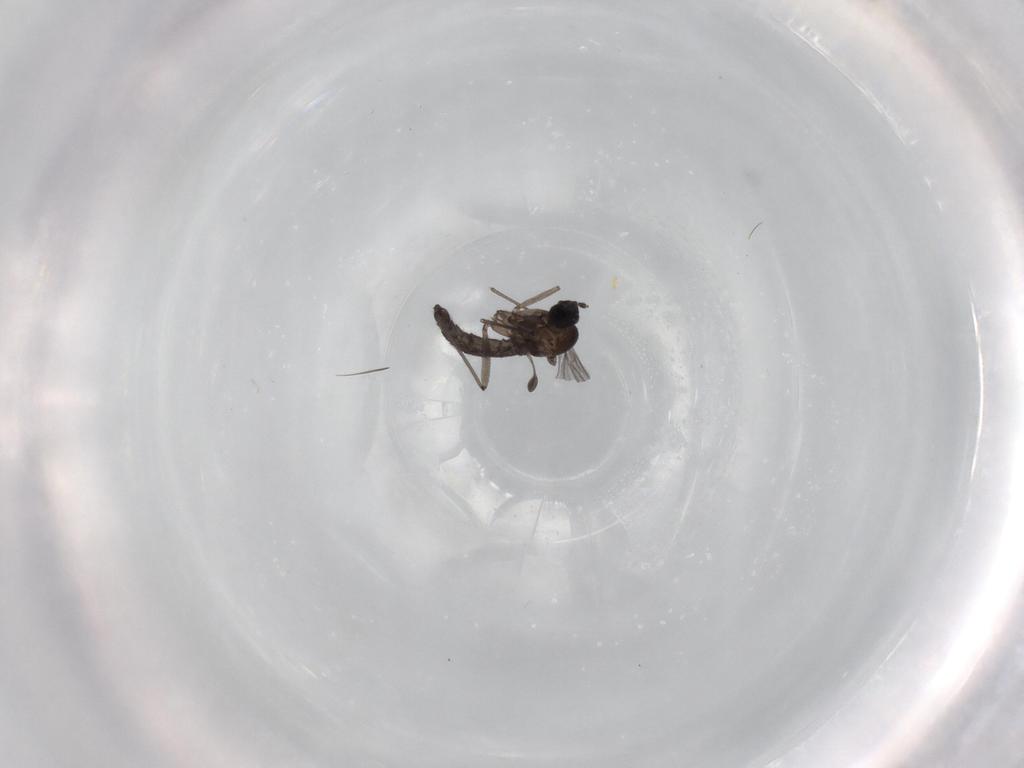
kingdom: Animalia
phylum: Arthropoda
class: Insecta
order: Diptera
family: Sciaridae
